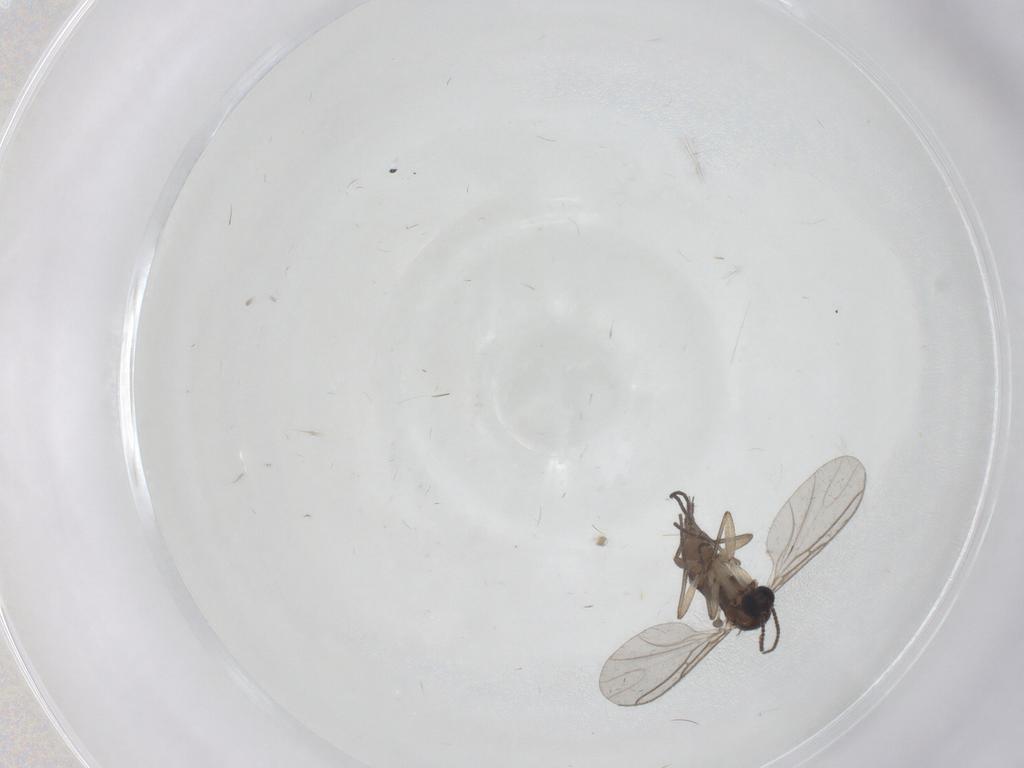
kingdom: Animalia
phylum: Arthropoda
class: Insecta
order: Diptera
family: Sciaridae
